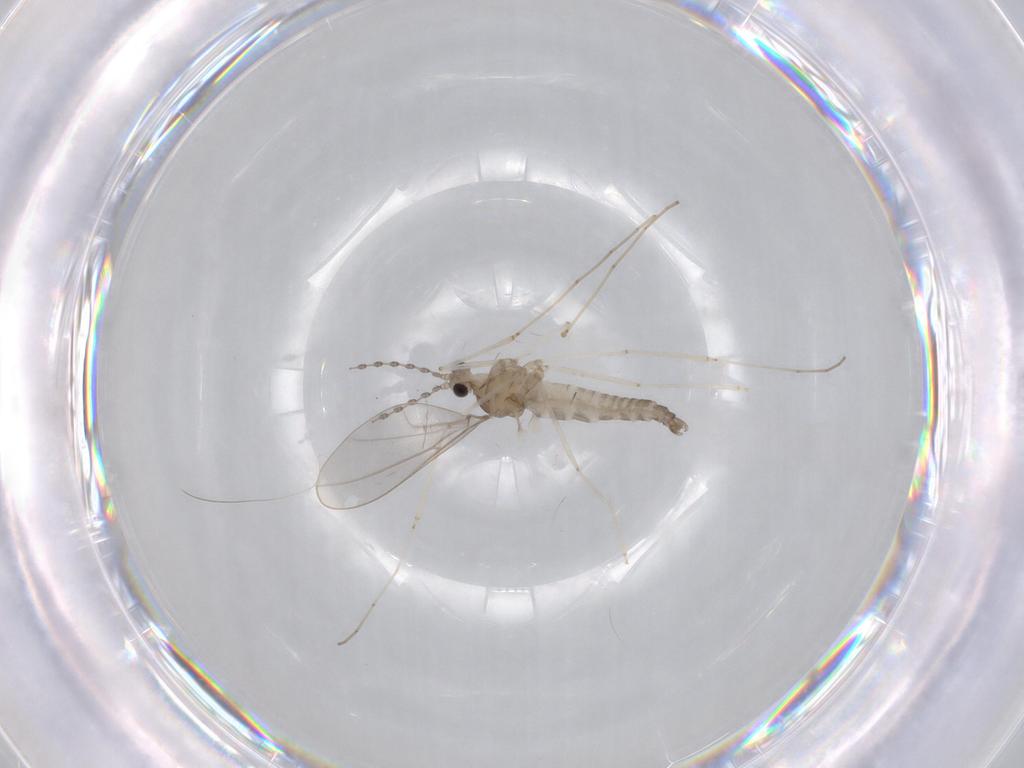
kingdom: Animalia
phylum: Arthropoda
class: Insecta
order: Diptera
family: Cecidomyiidae
